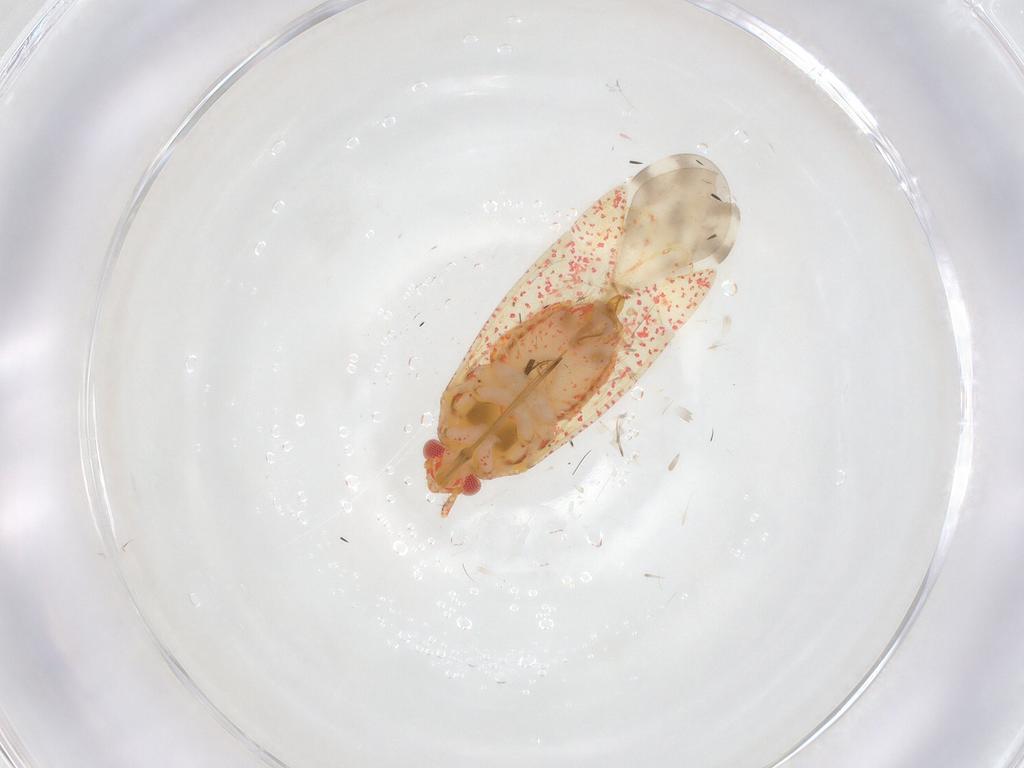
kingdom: Animalia
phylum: Arthropoda
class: Insecta
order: Hemiptera
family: Miridae
